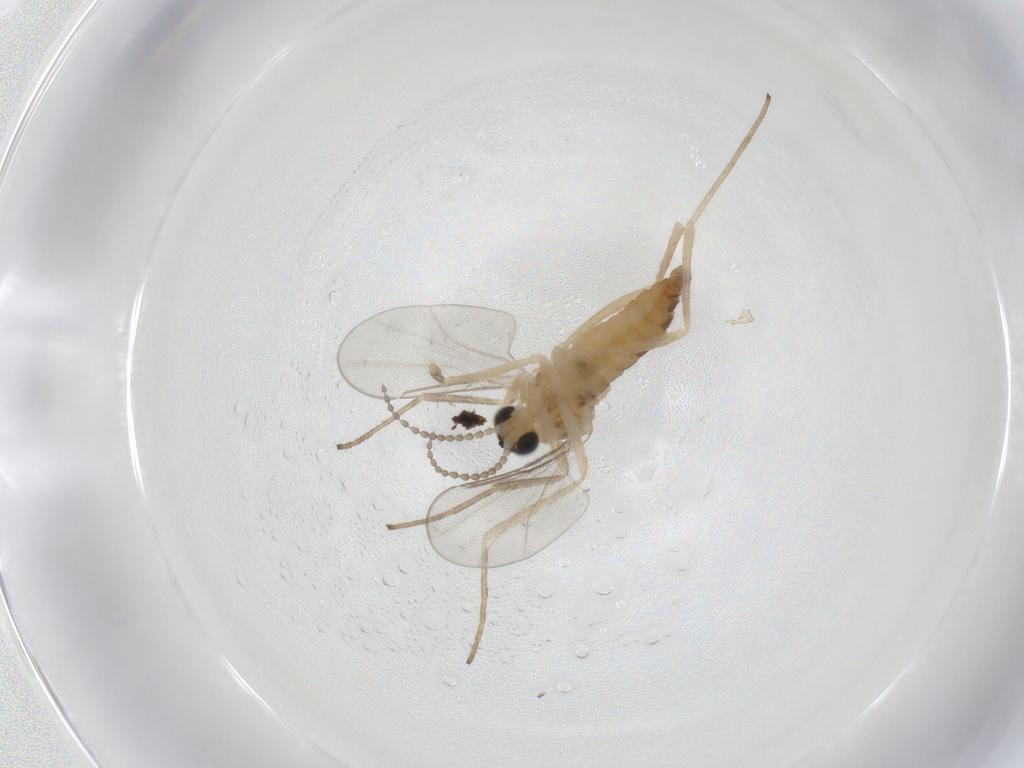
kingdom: Animalia
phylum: Arthropoda
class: Insecta
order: Diptera
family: Cecidomyiidae
